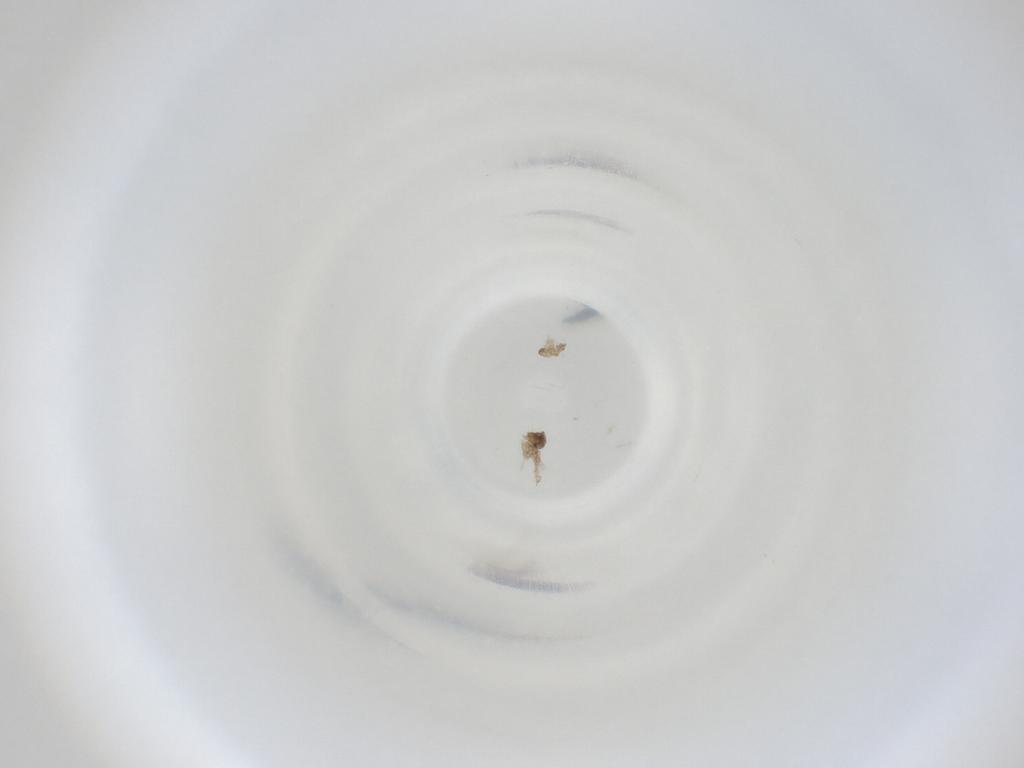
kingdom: Animalia
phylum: Arthropoda
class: Insecta
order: Diptera
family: Cecidomyiidae
